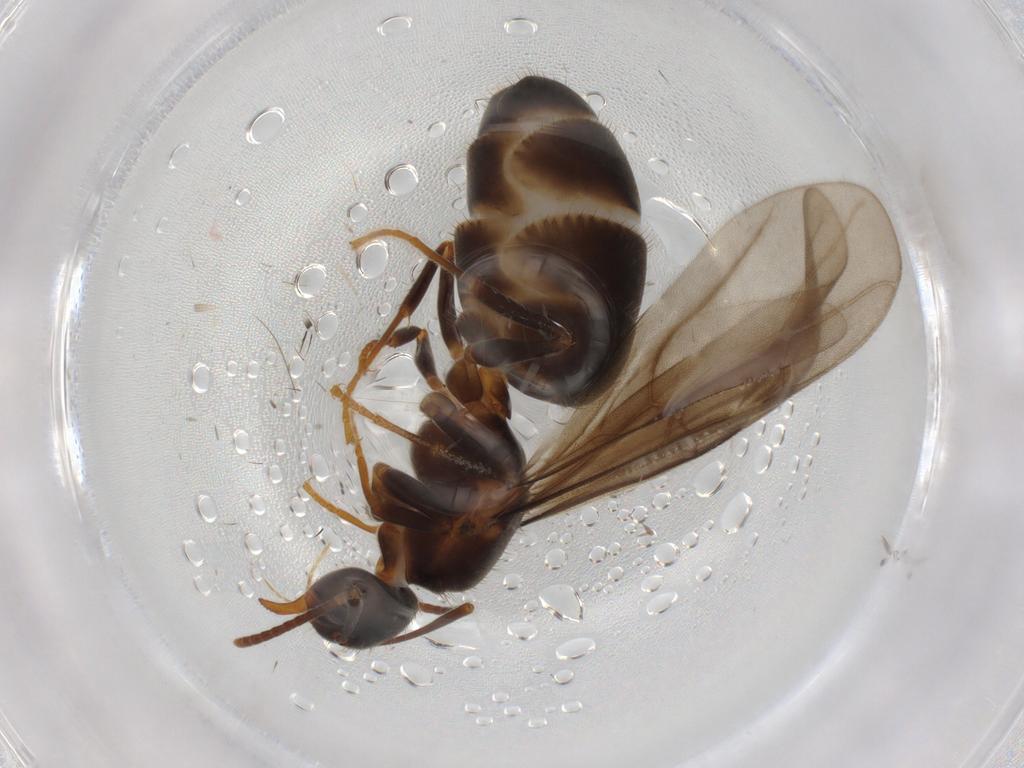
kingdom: Animalia
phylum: Arthropoda
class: Insecta
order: Hymenoptera
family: Formicidae
